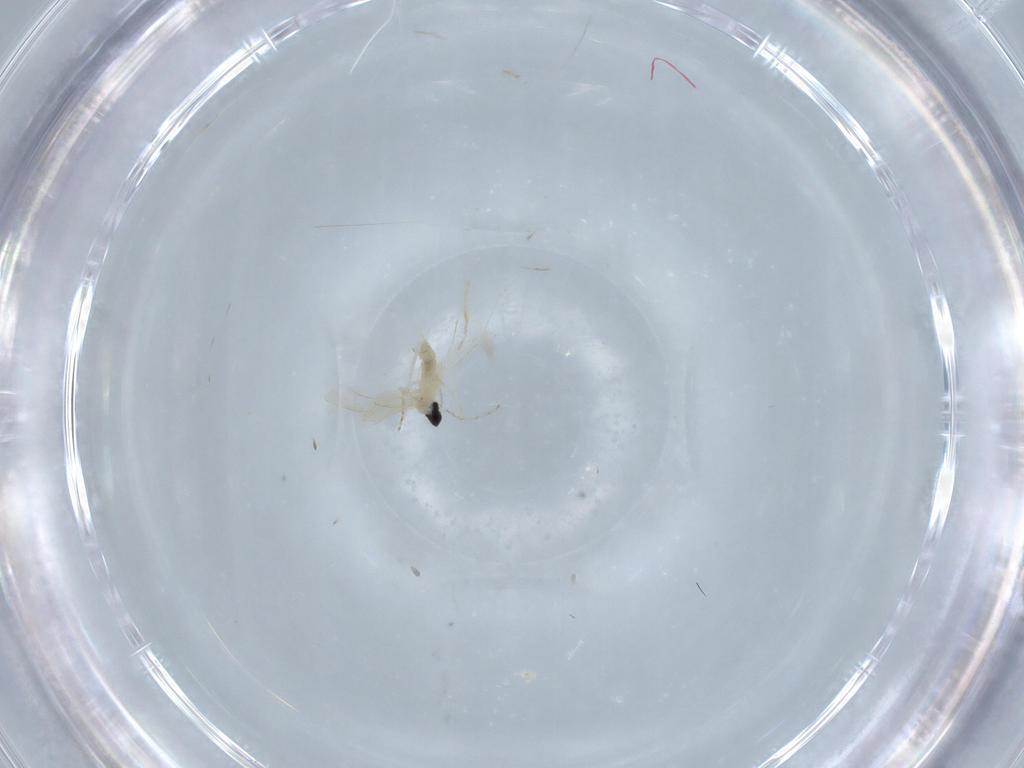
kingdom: Animalia
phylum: Arthropoda
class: Insecta
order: Diptera
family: Cecidomyiidae
